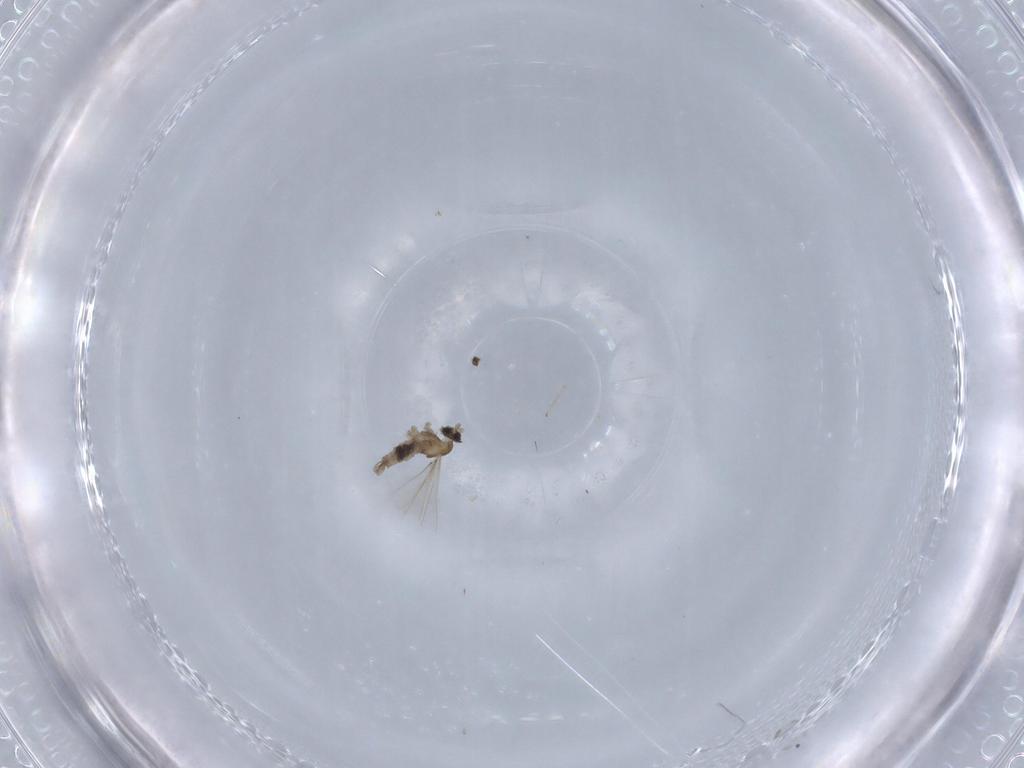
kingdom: Animalia
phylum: Arthropoda
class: Insecta
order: Diptera
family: Cecidomyiidae
